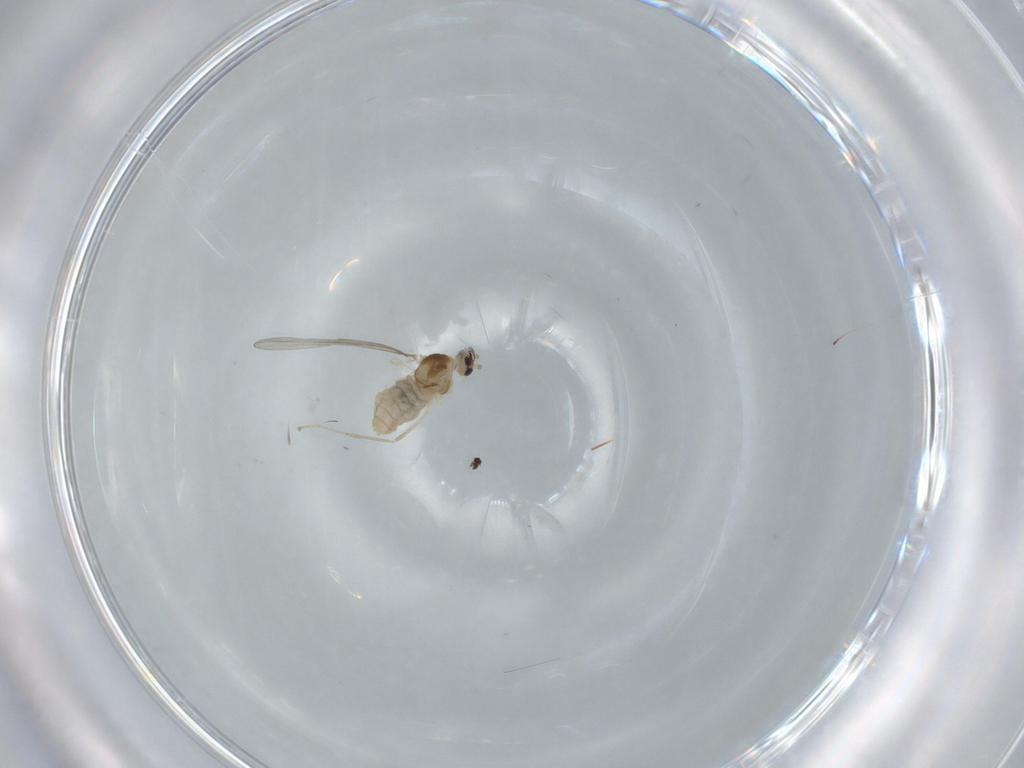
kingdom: Animalia
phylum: Arthropoda
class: Insecta
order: Diptera
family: Cecidomyiidae
